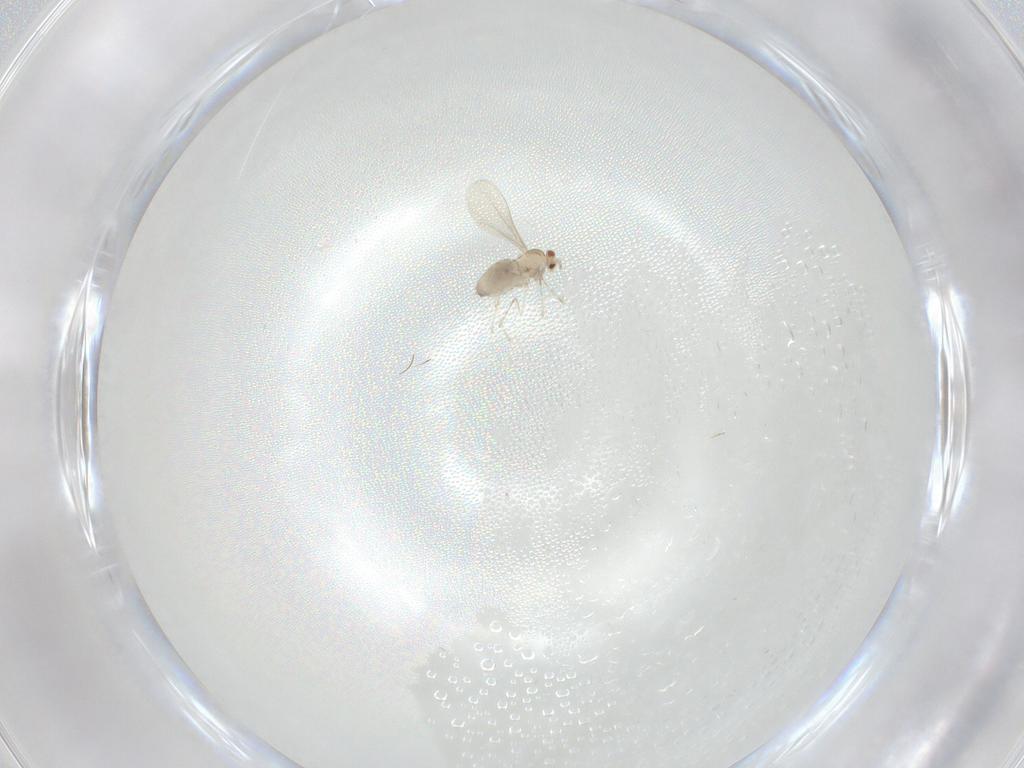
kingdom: Animalia
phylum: Arthropoda
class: Insecta
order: Diptera
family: Cecidomyiidae
